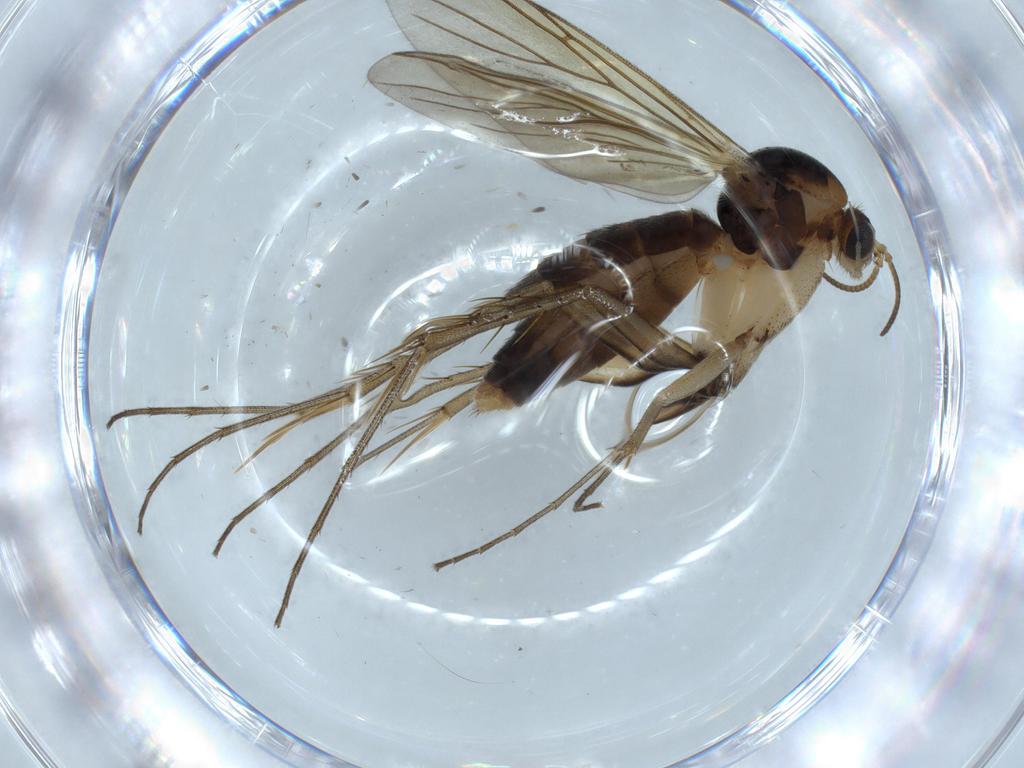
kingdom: Animalia
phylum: Arthropoda
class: Insecta
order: Diptera
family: Mycetophilidae
